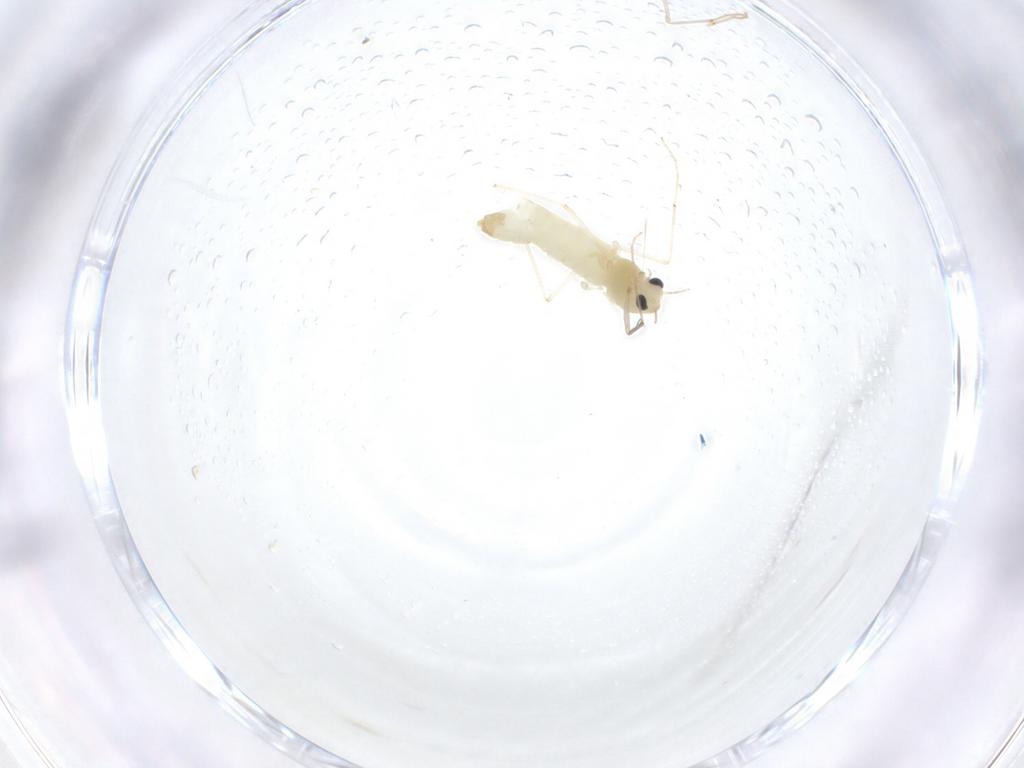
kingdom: Animalia
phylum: Arthropoda
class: Insecta
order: Diptera
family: Chironomidae
